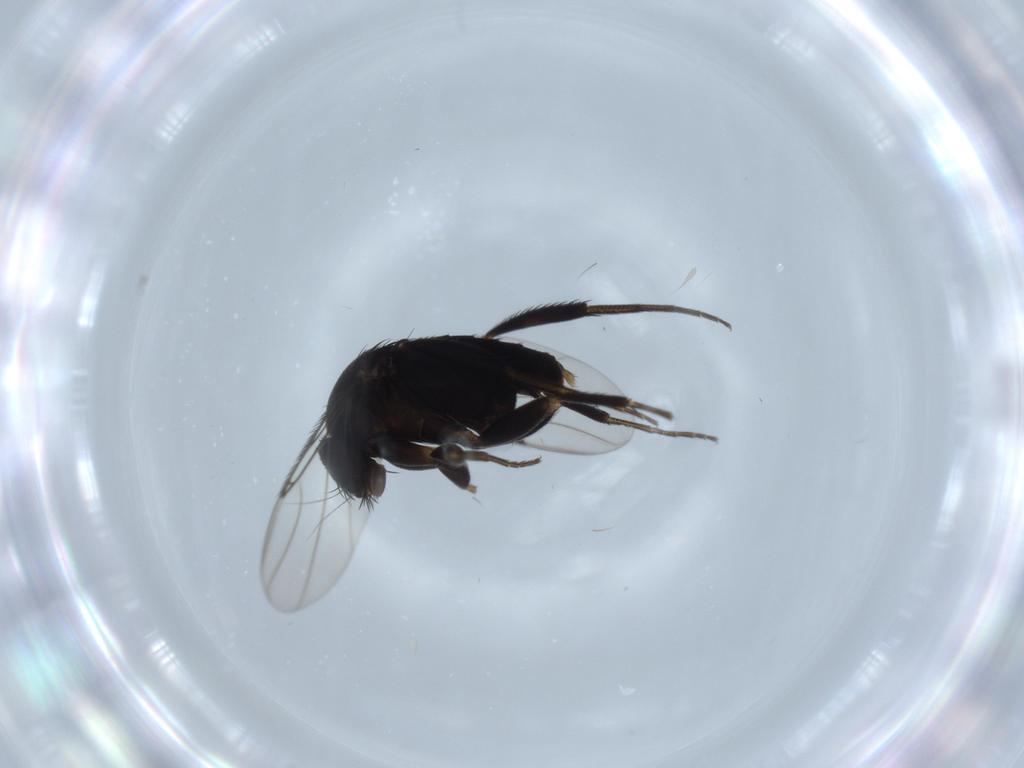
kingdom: Animalia
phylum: Arthropoda
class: Insecta
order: Diptera
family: Phoridae
